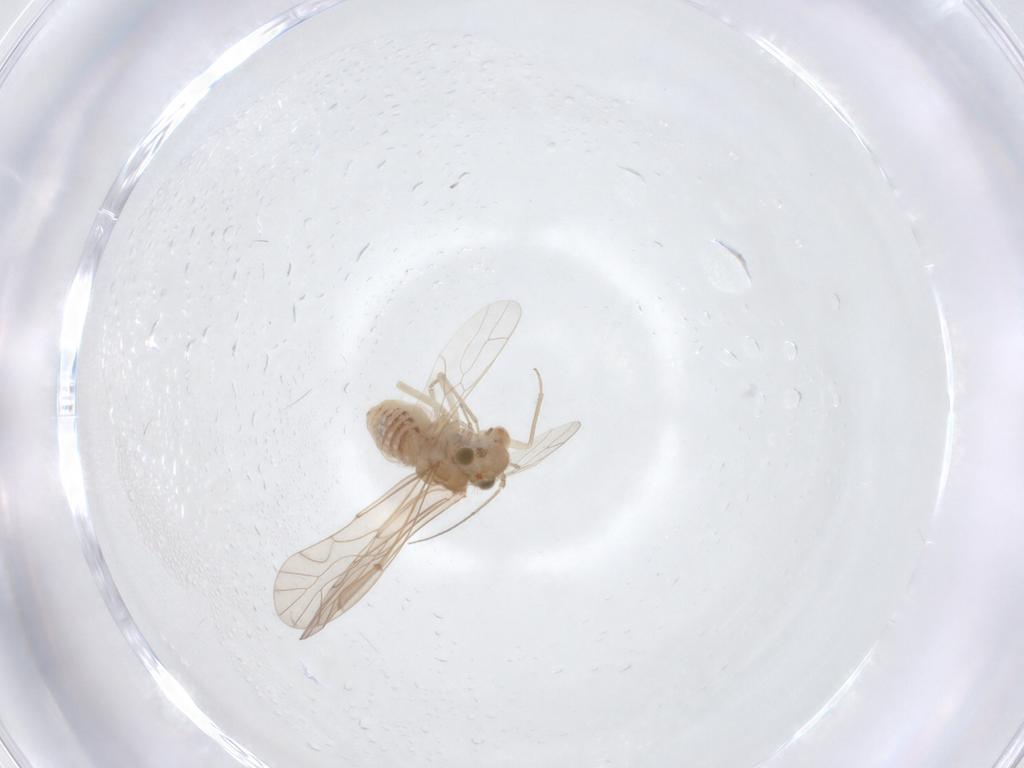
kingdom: Animalia
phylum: Arthropoda
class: Insecta
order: Psocodea
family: Lachesillidae
